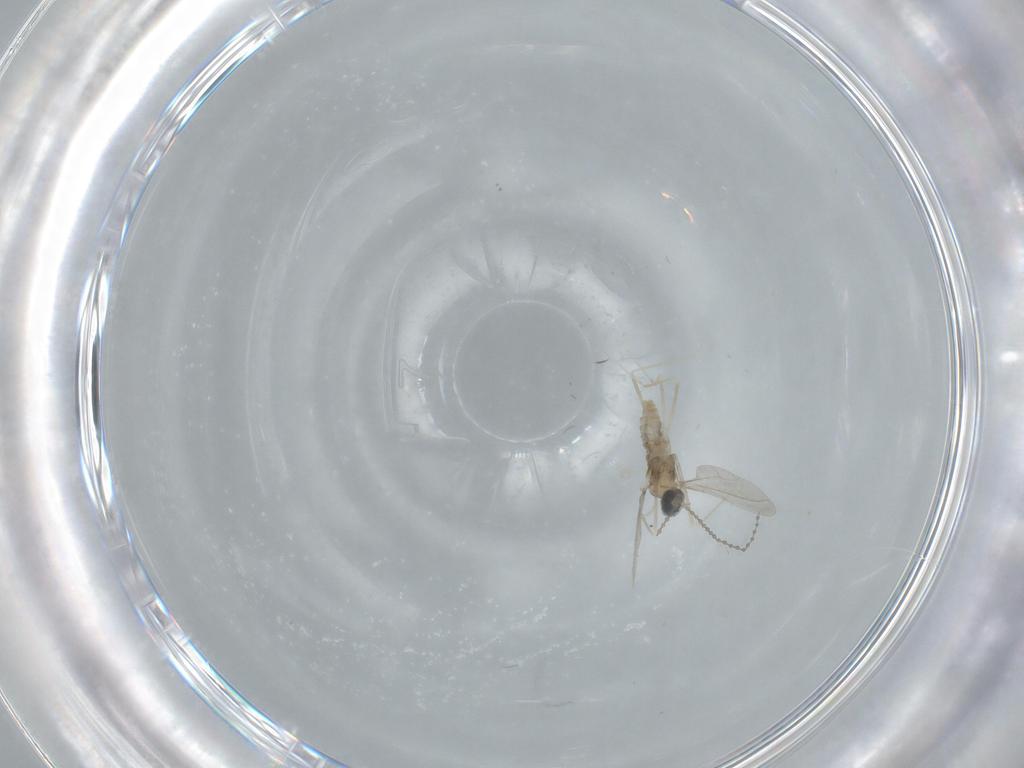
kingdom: Animalia
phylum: Arthropoda
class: Insecta
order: Diptera
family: Cecidomyiidae
